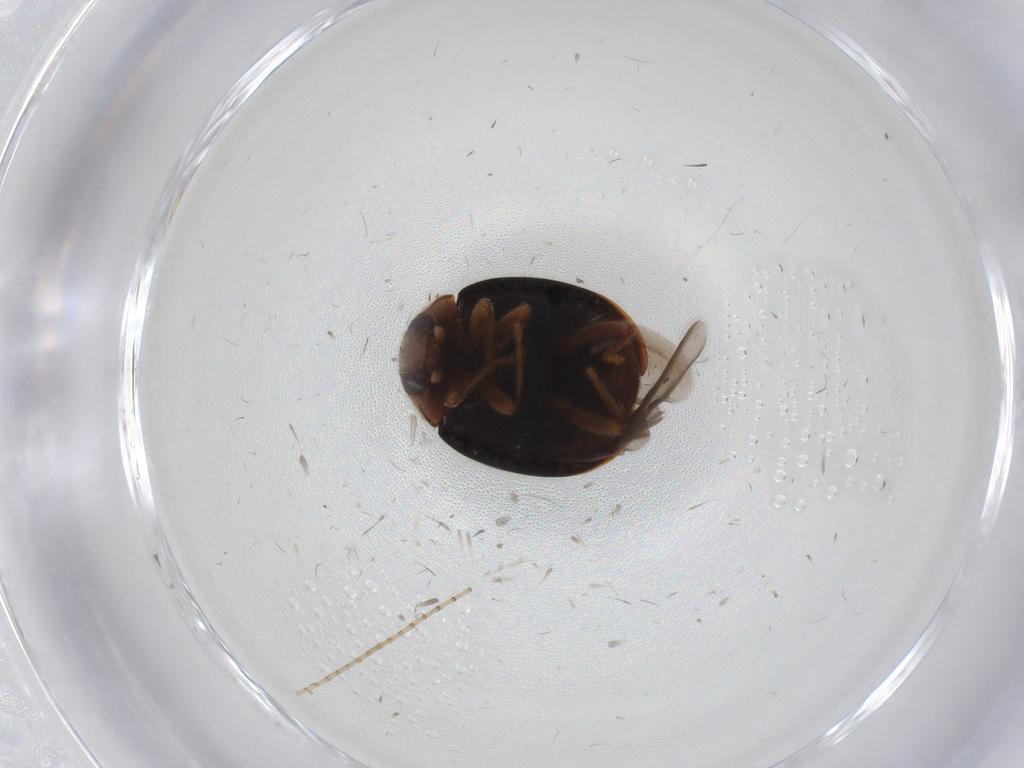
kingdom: Animalia
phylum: Arthropoda
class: Insecta
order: Coleoptera
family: Coccinellidae
